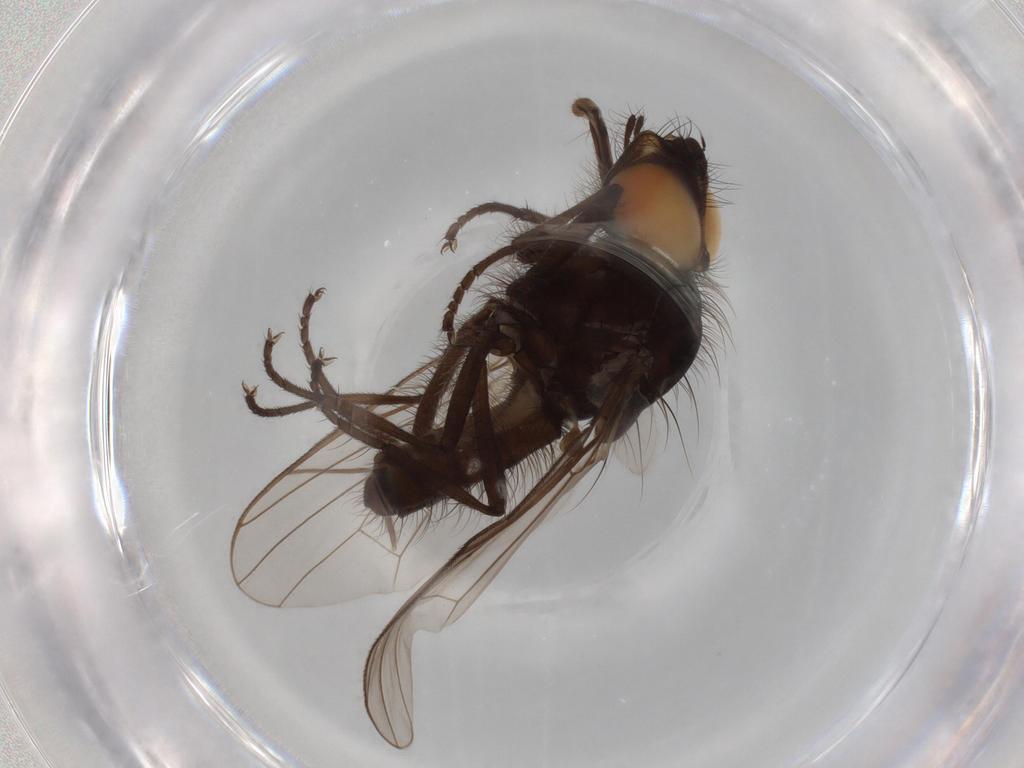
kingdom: Animalia
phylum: Arthropoda
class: Insecta
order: Diptera
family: Anthomyiidae
